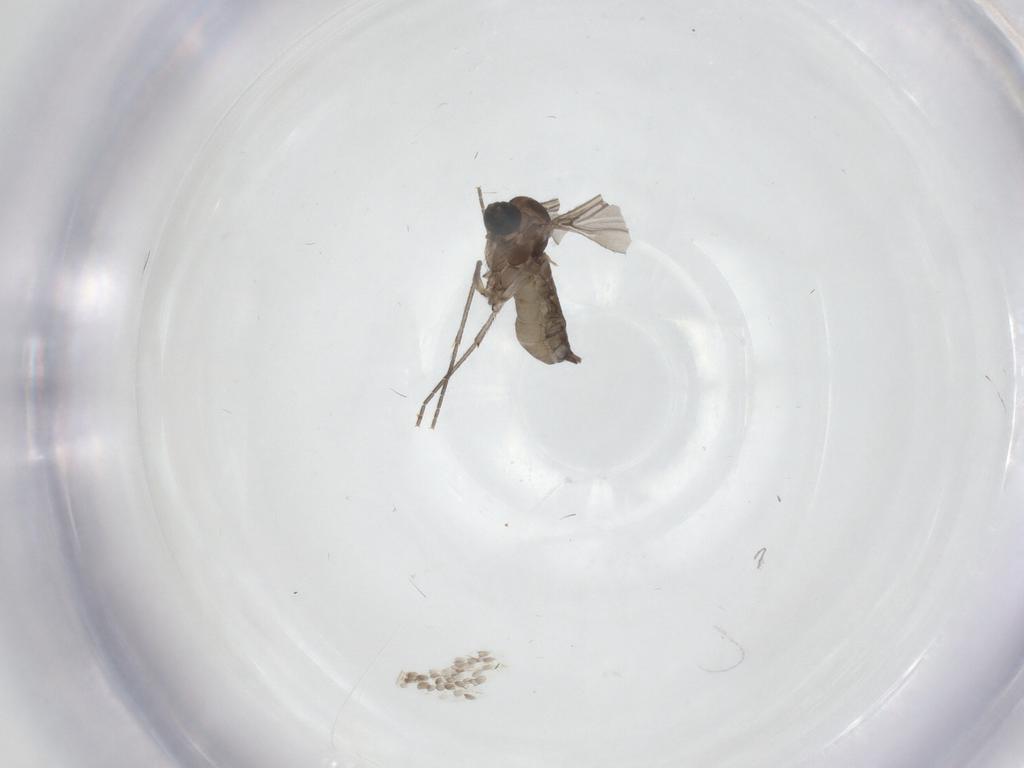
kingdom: Animalia
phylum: Arthropoda
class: Insecta
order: Diptera
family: Sciaridae
